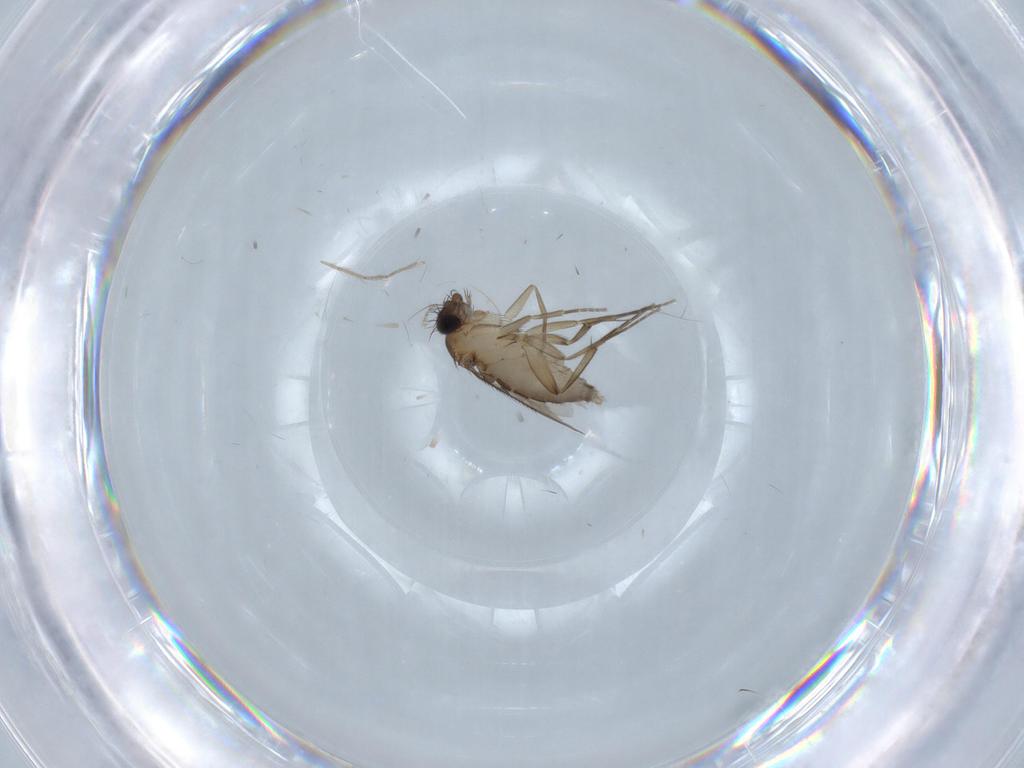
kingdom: Animalia
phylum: Arthropoda
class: Insecta
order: Diptera
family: Phoridae
